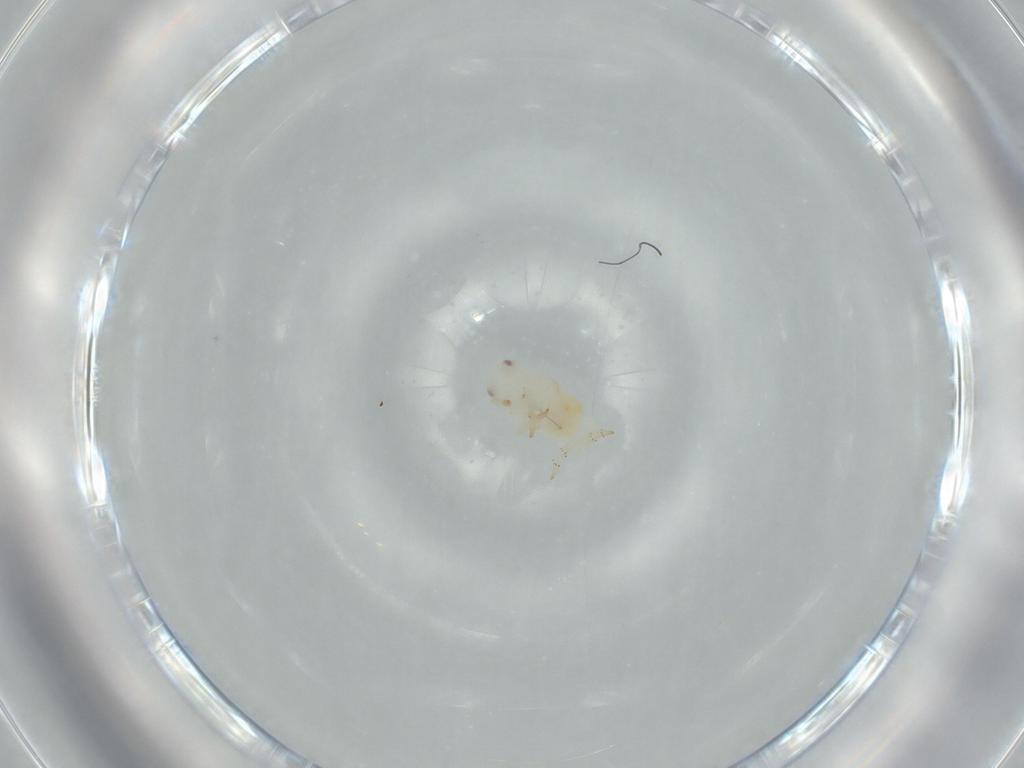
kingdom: Animalia
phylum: Arthropoda
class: Insecta
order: Hemiptera
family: Flatidae
